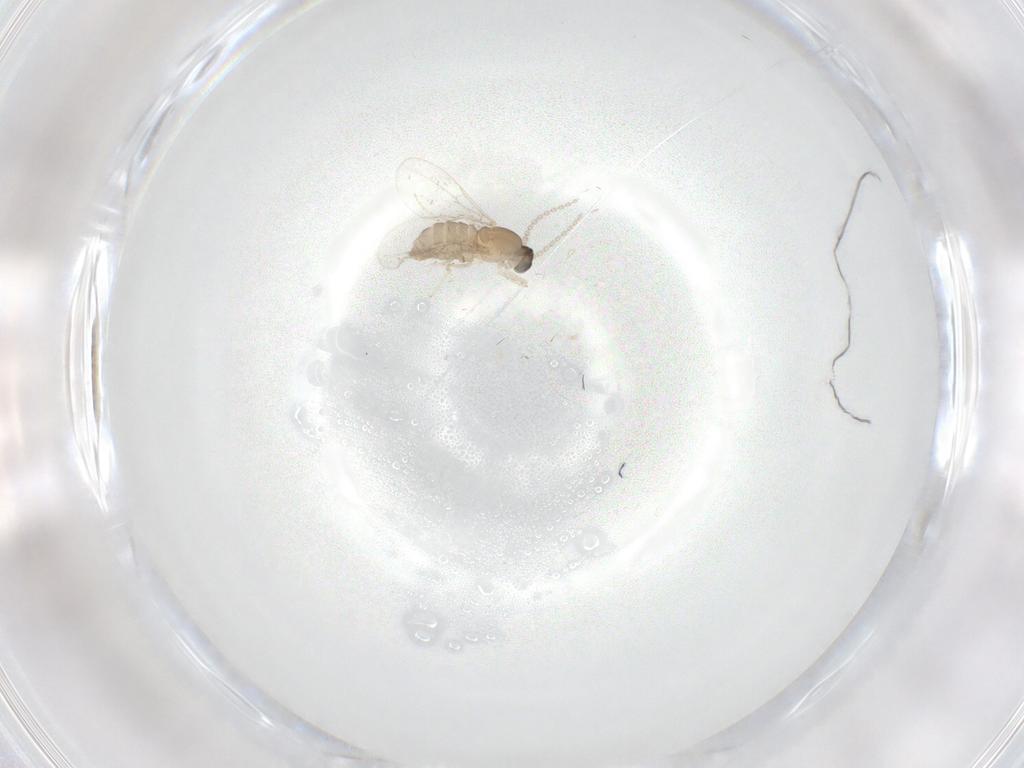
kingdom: Animalia
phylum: Arthropoda
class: Insecta
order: Diptera
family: Cecidomyiidae
